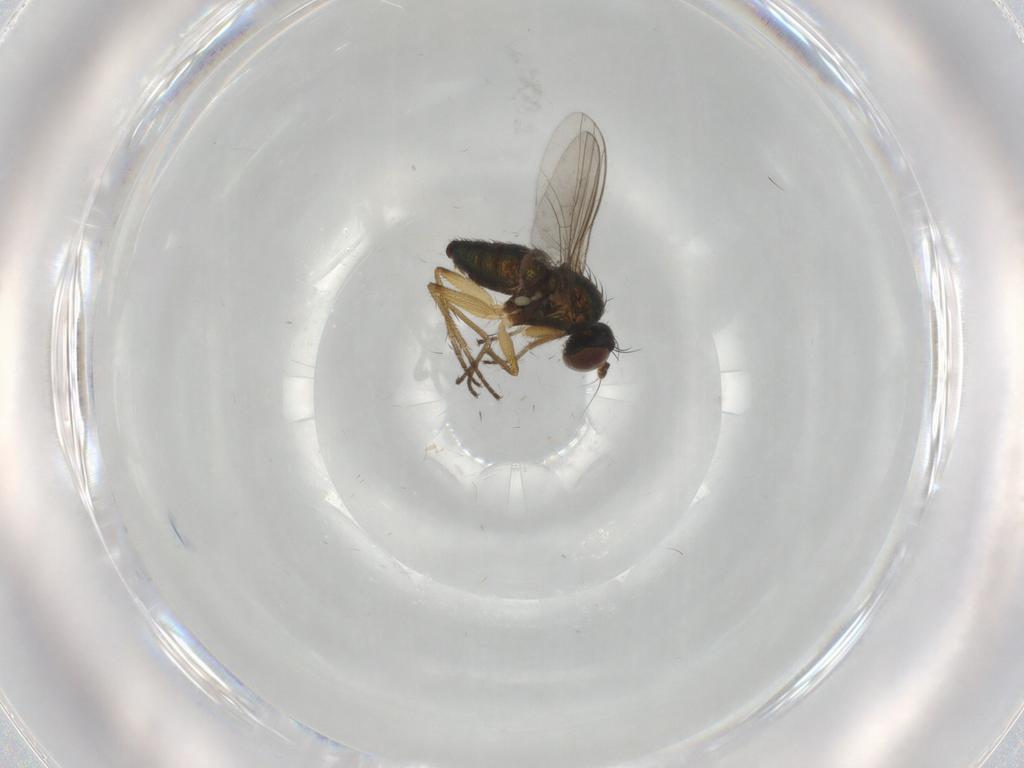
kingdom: Animalia
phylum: Arthropoda
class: Insecta
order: Diptera
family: Dolichopodidae
